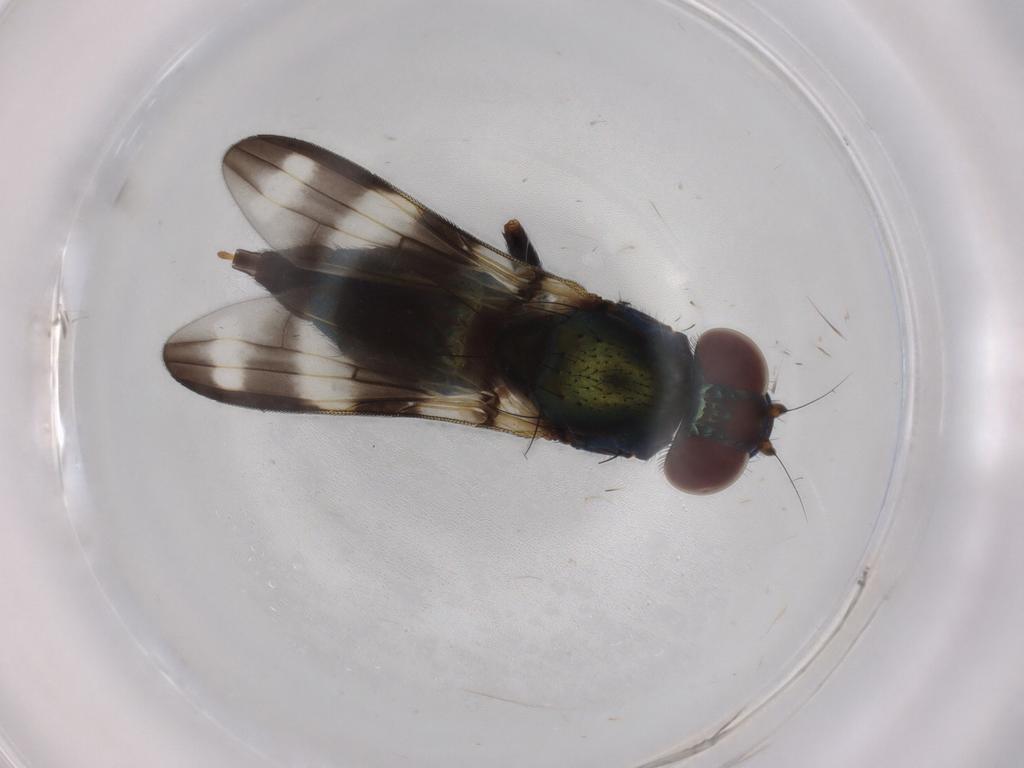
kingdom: Animalia
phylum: Arthropoda
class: Insecta
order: Diptera
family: Ulidiidae
